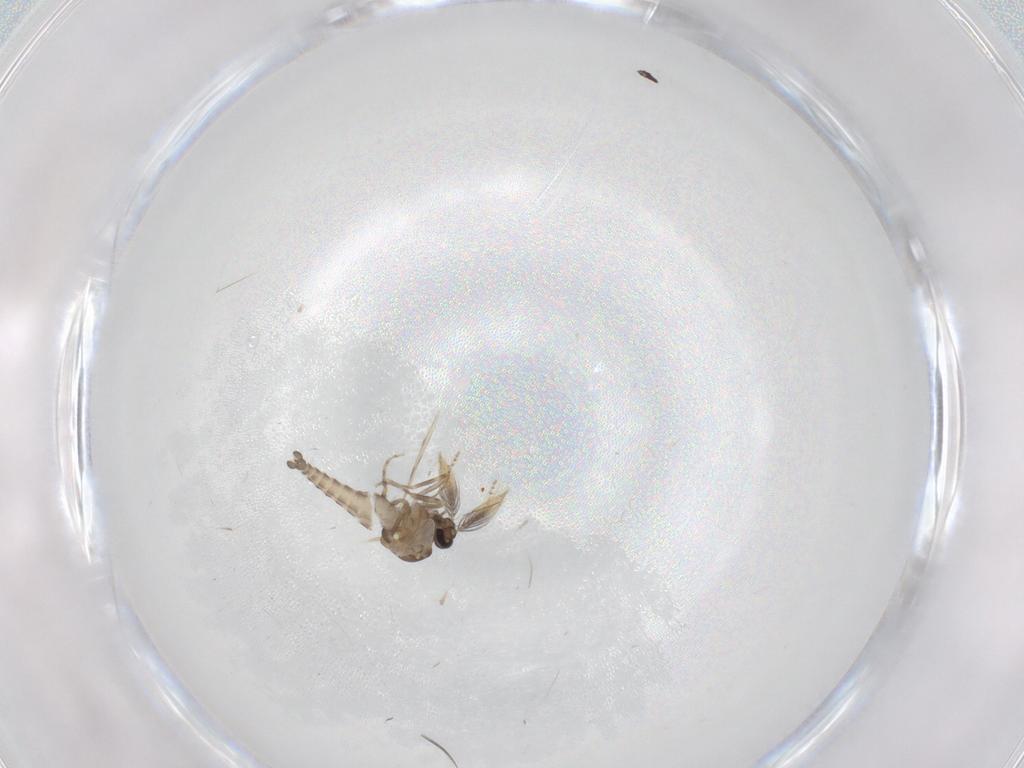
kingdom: Animalia
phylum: Arthropoda
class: Insecta
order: Diptera
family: Ceratopogonidae
